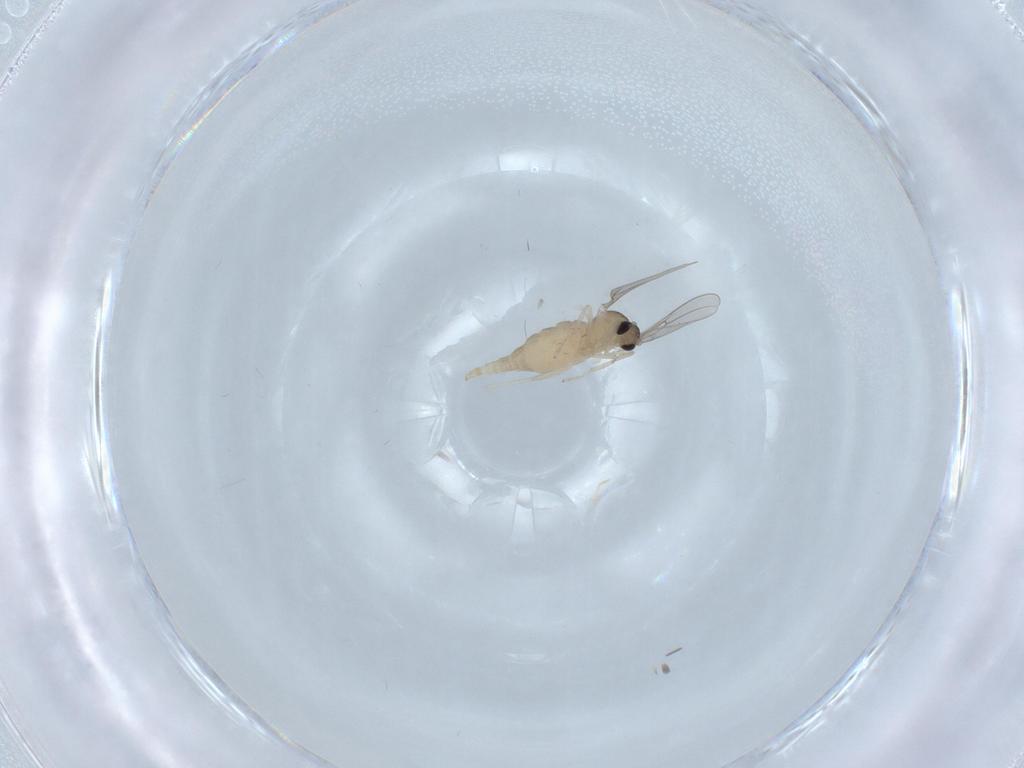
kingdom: Animalia
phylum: Arthropoda
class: Insecta
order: Diptera
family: Cecidomyiidae
